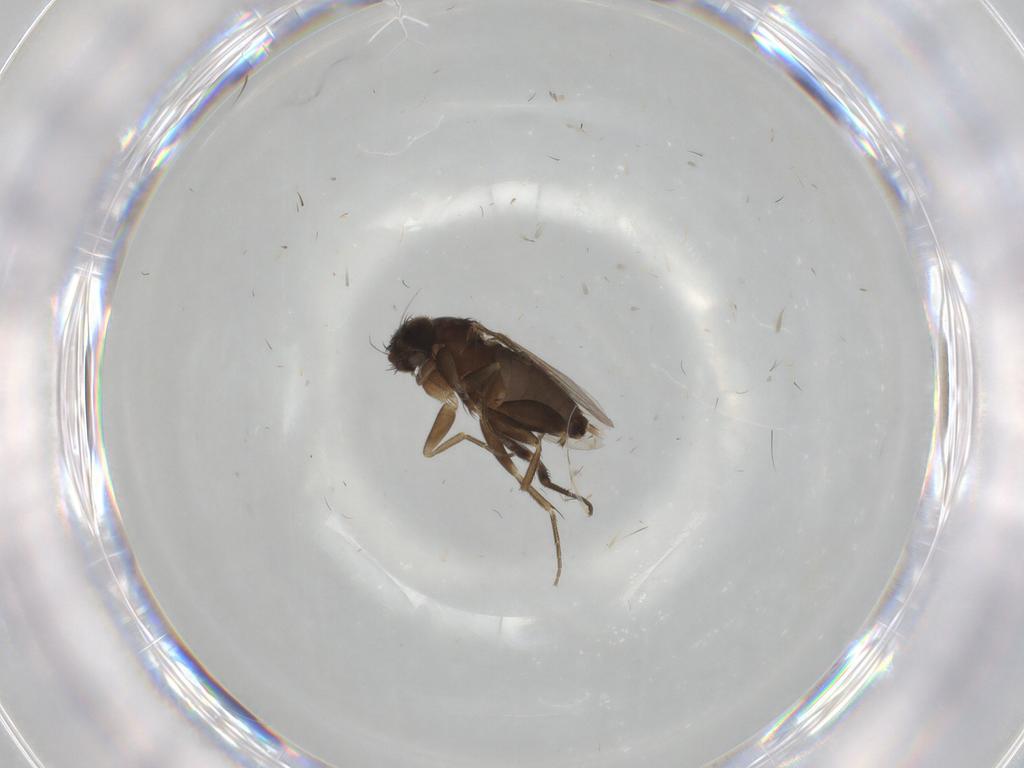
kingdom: Animalia
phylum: Arthropoda
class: Insecta
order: Diptera
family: Phoridae
